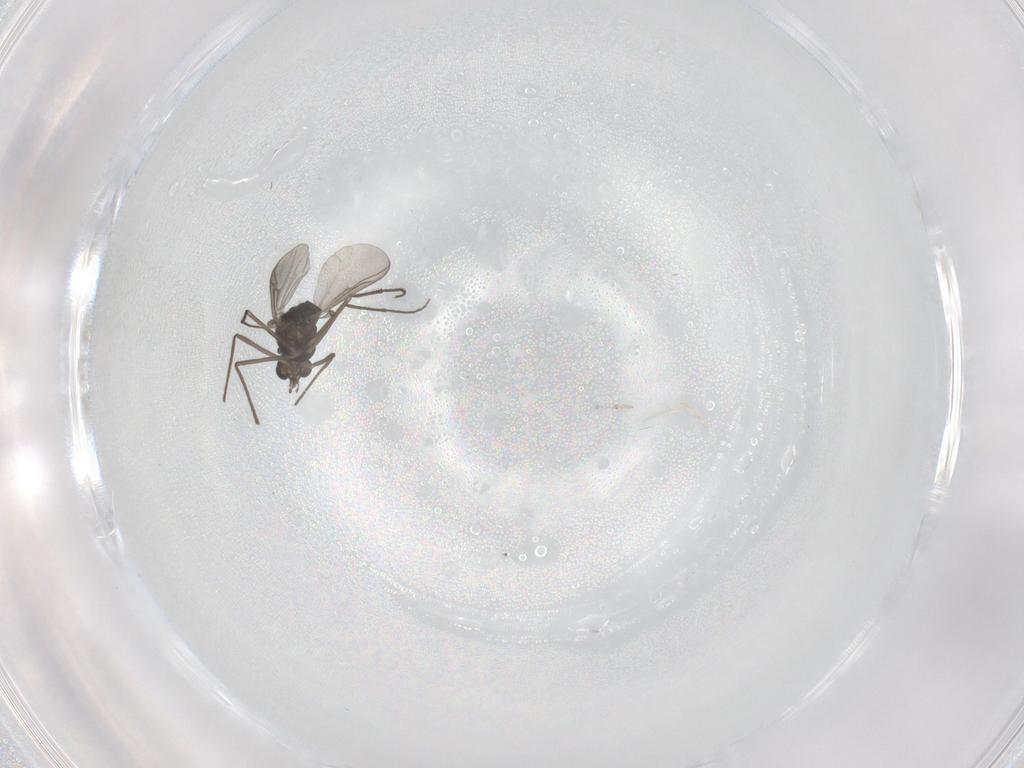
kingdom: Animalia
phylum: Arthropoda
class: Insecta
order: Diptera
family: Chironomidae
